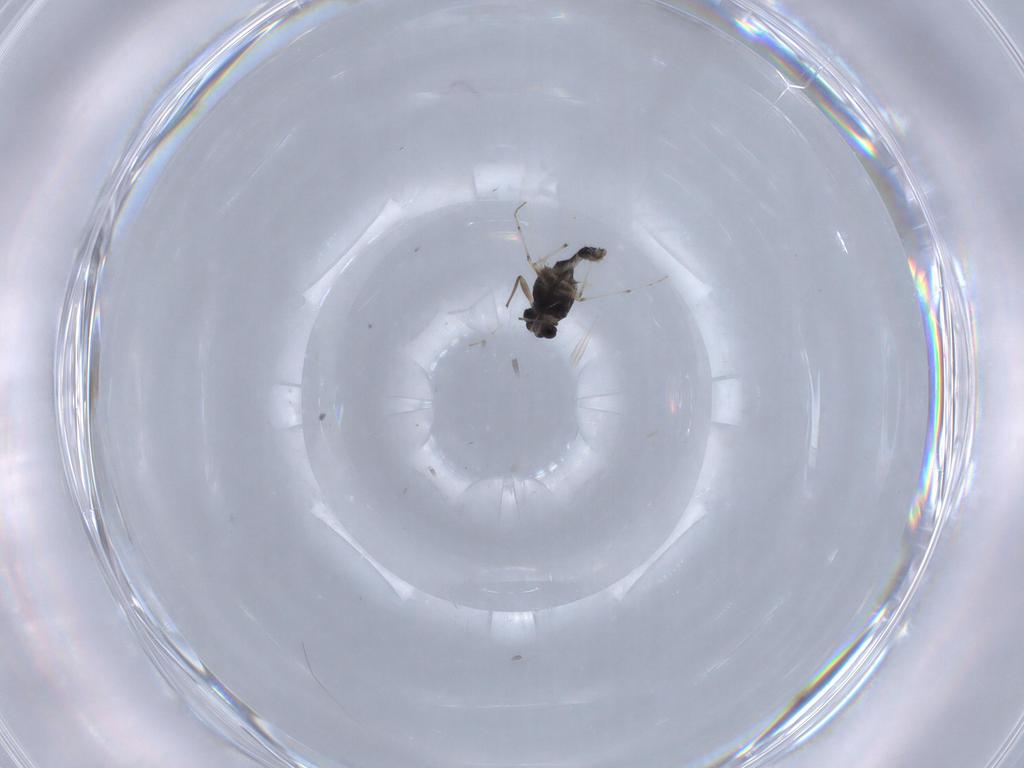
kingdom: Animalia
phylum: Arthropoda
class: Insecta
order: Diptera
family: Chironomidae
